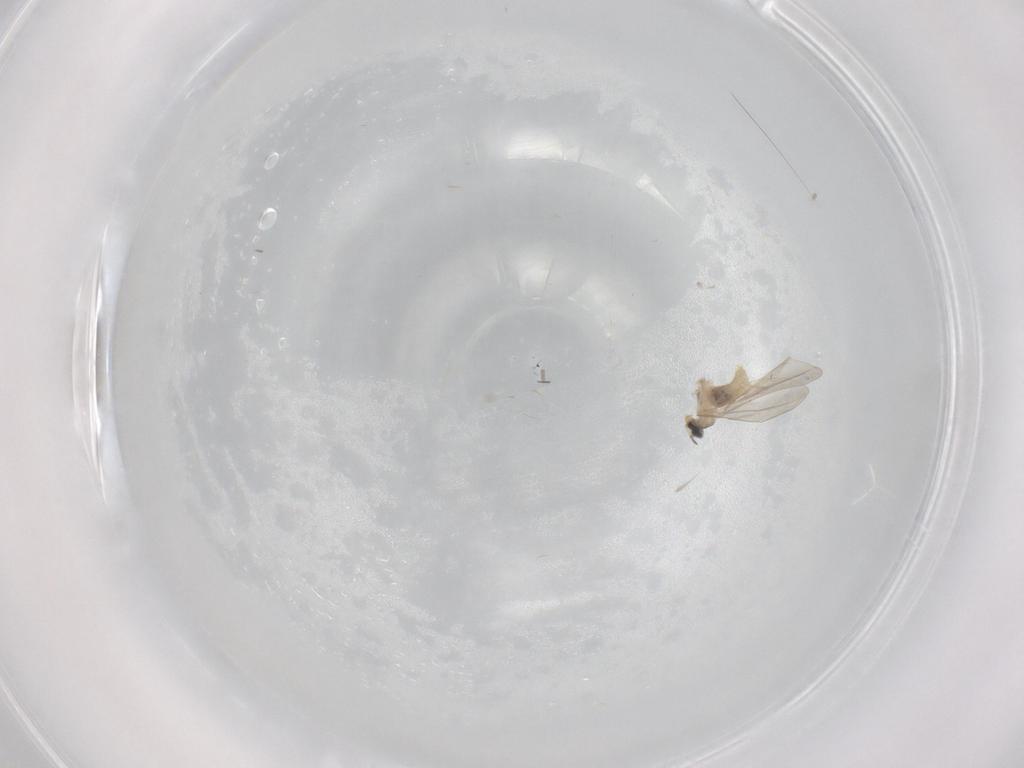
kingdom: Animalia
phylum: Arthropoda
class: Insecta
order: Diptera
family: Cecidomyiidae
